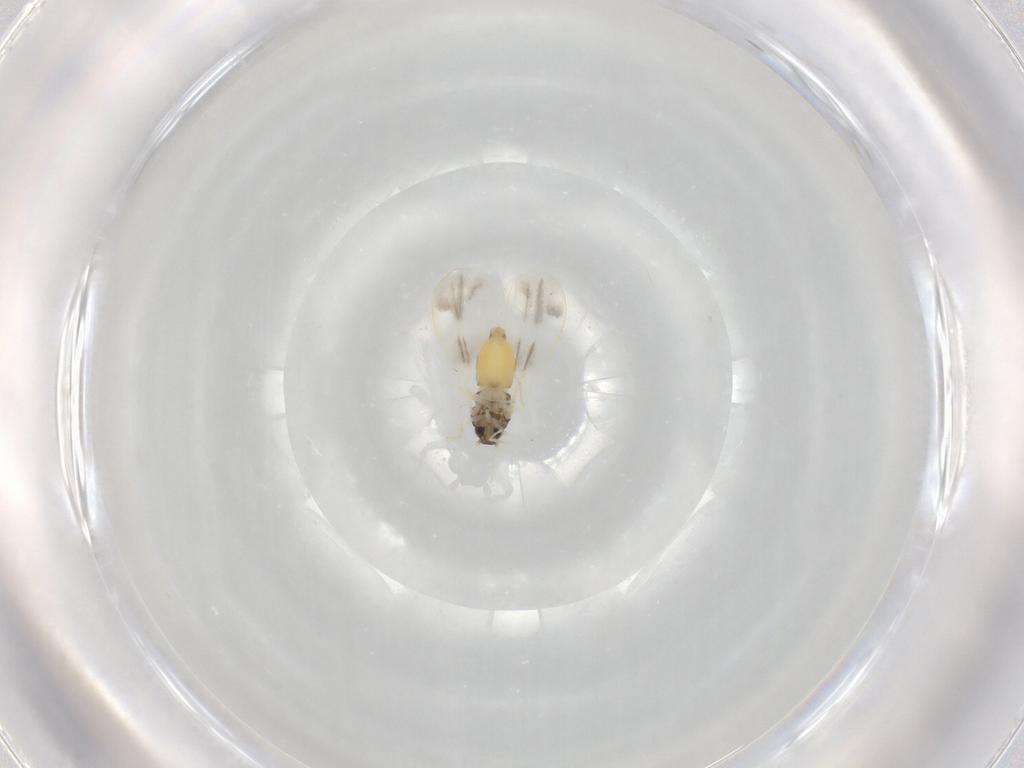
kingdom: Animalia
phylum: Arthropoda
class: Insecta
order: Hemiptera
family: Aleyrodidae
